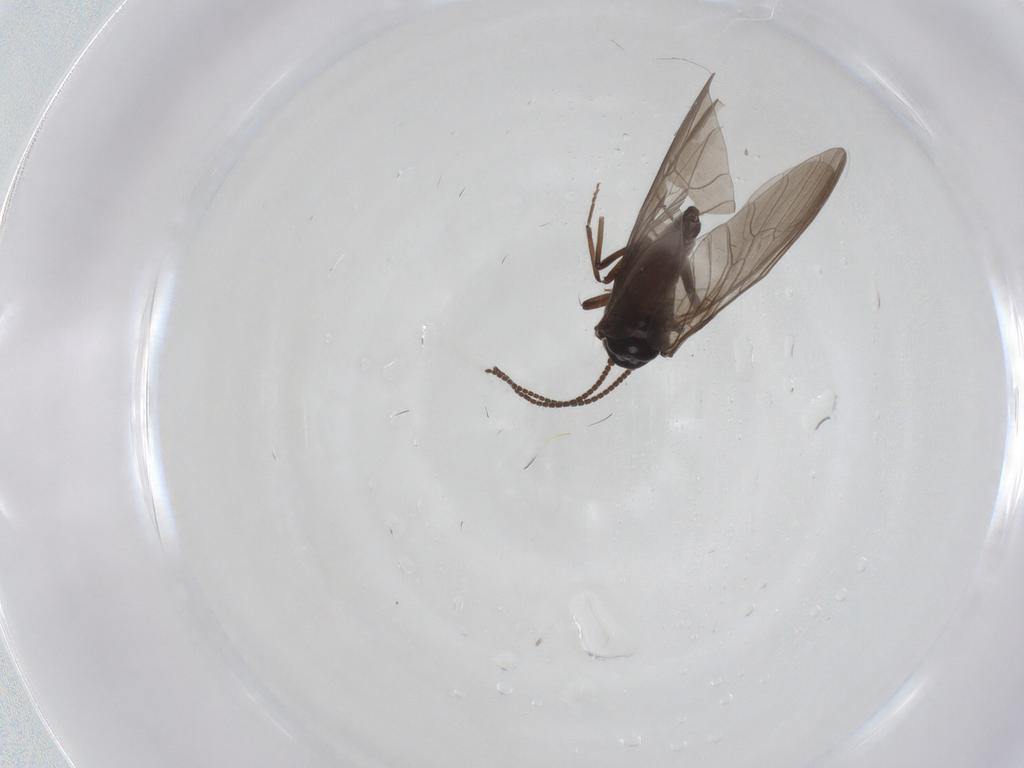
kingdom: Animalia
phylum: Arthropoda
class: Insecta
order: Neuroptera
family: Coniopterygidae
